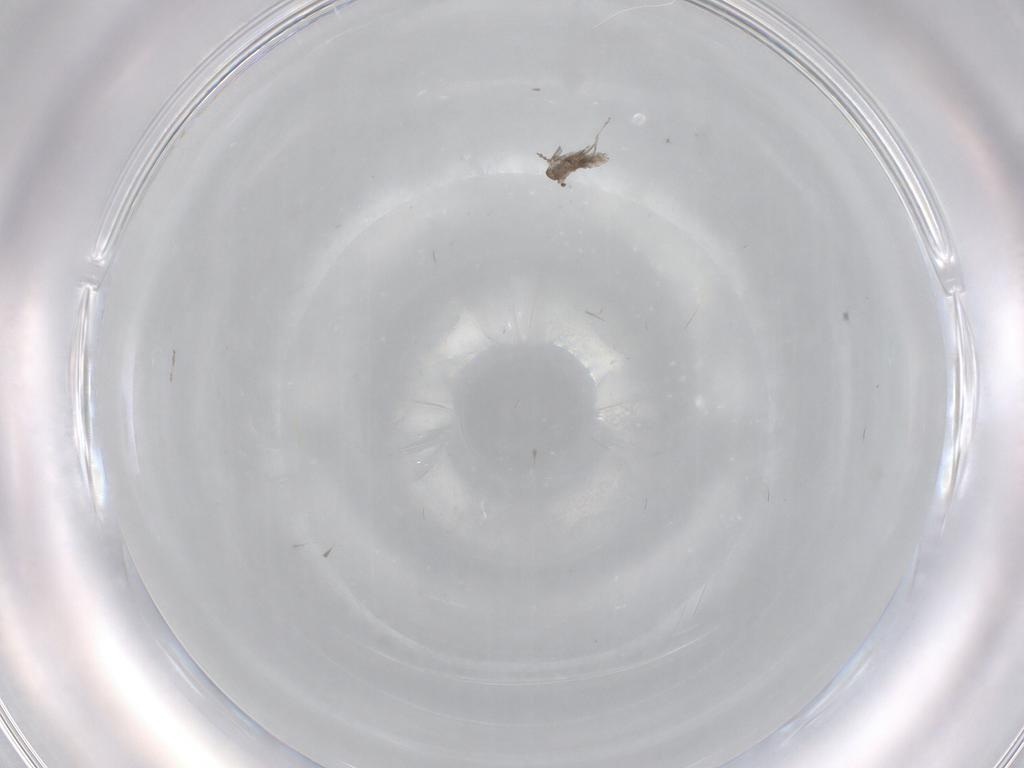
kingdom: Animalia
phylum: Arthropoda
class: Insecta
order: Diptera
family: Cecidomyiidae
